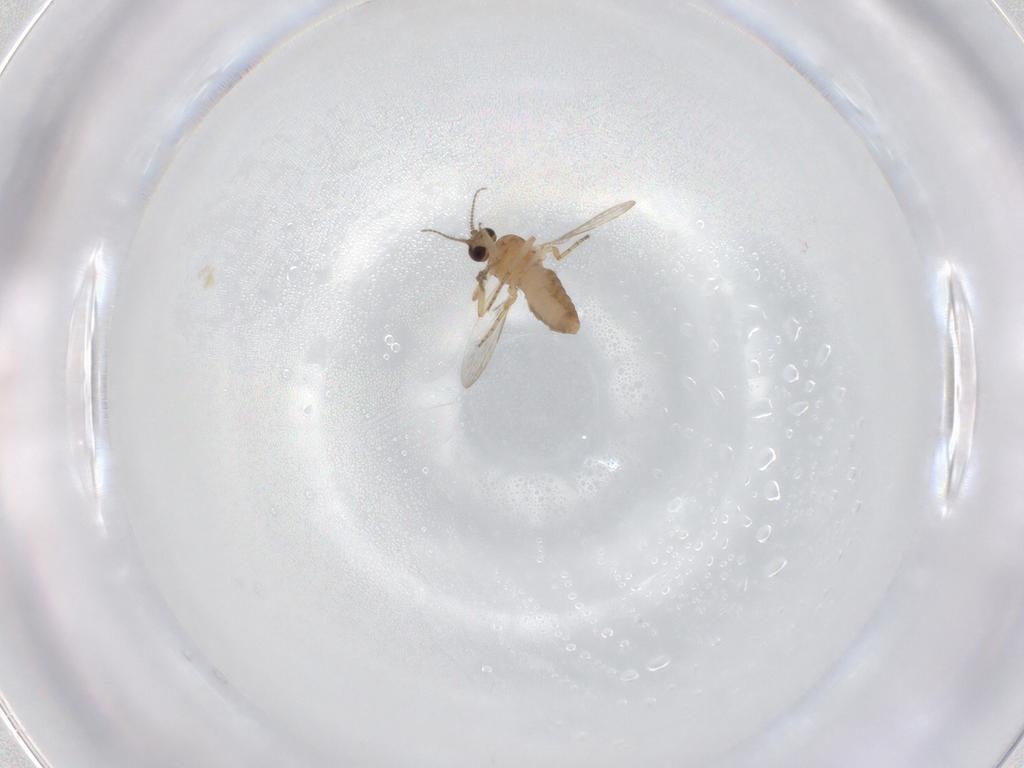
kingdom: Animalia
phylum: Arthropoda
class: Insecta
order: Diptera
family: Ceratopogonidae
